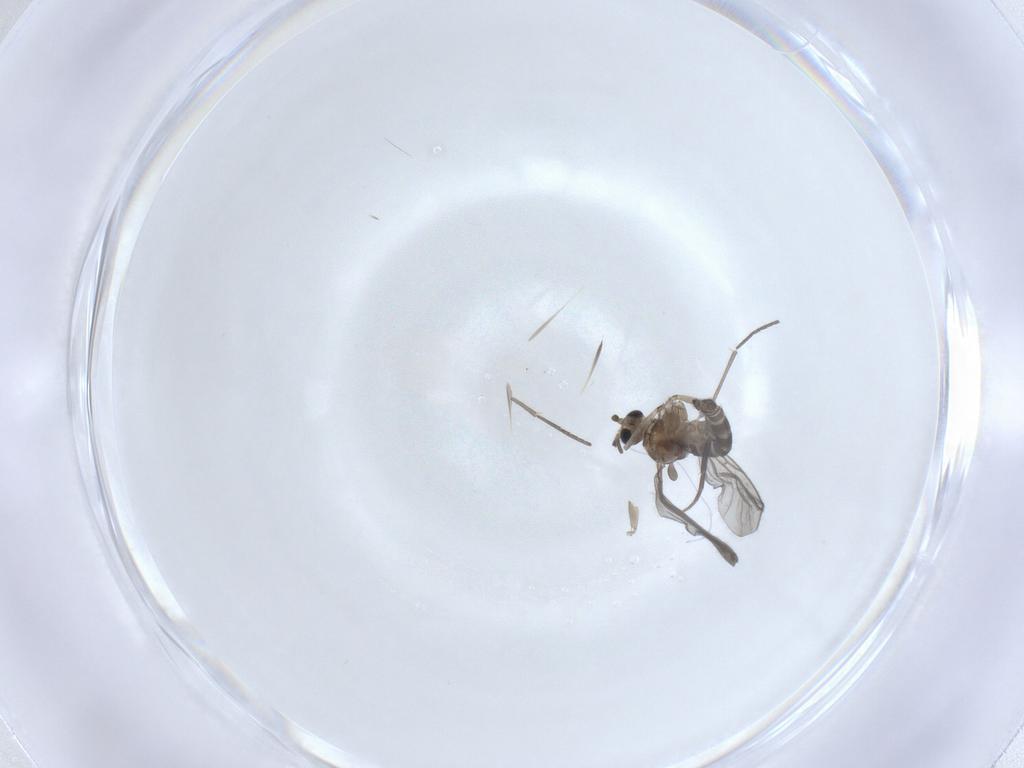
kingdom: Animalia
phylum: Arthropoda
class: Insecta
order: Diptera
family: Sciaridae
